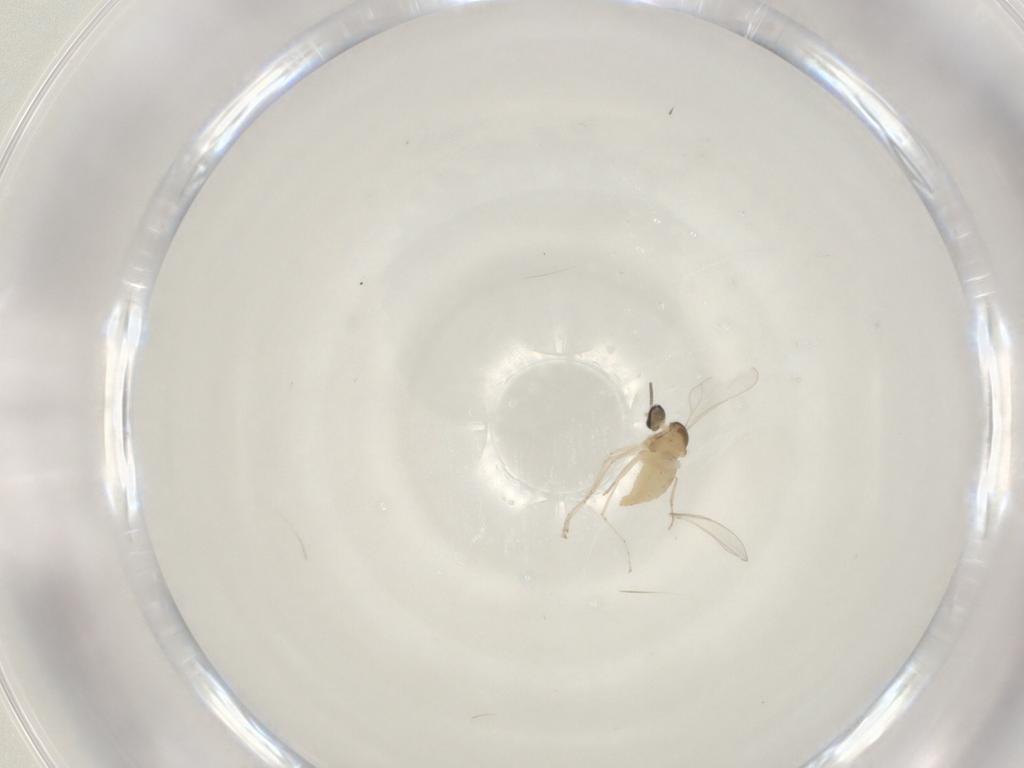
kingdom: Animalia
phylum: Arthropoda
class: Insecta
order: Diptera
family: Cecidomyiidae
